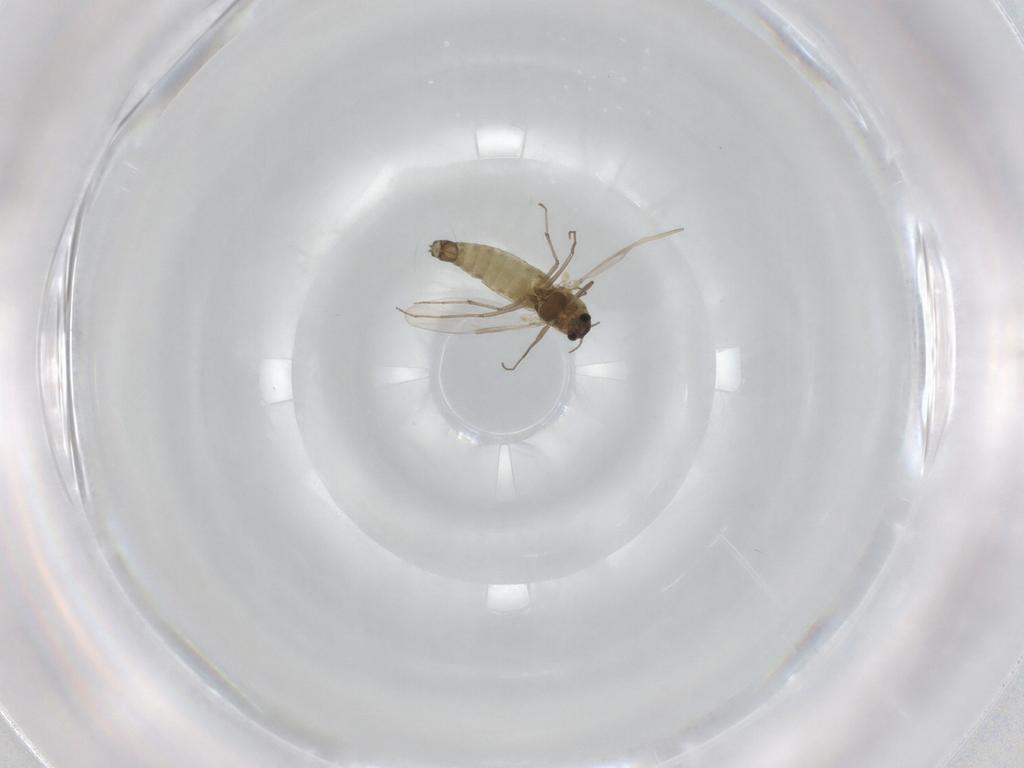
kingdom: Animalia
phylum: Arthropoda
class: Insecta
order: Diptera
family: Chironomidae
